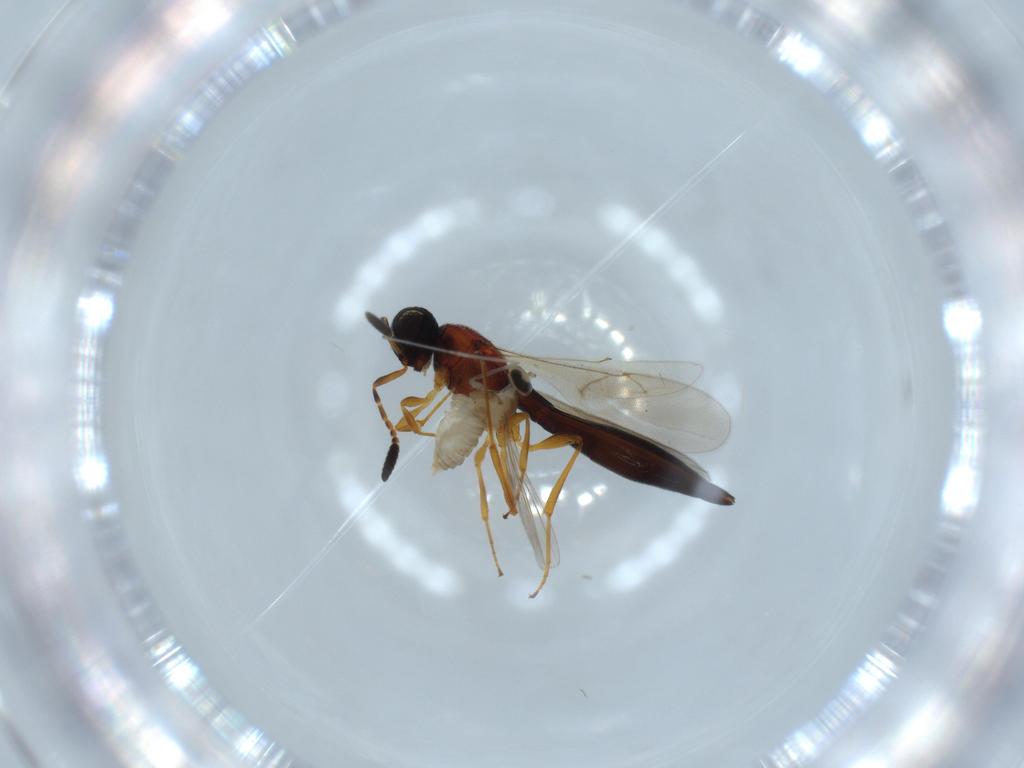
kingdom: Animalia
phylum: Arthropoda
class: Insecta
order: Hymenoptera
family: Scelionidae
